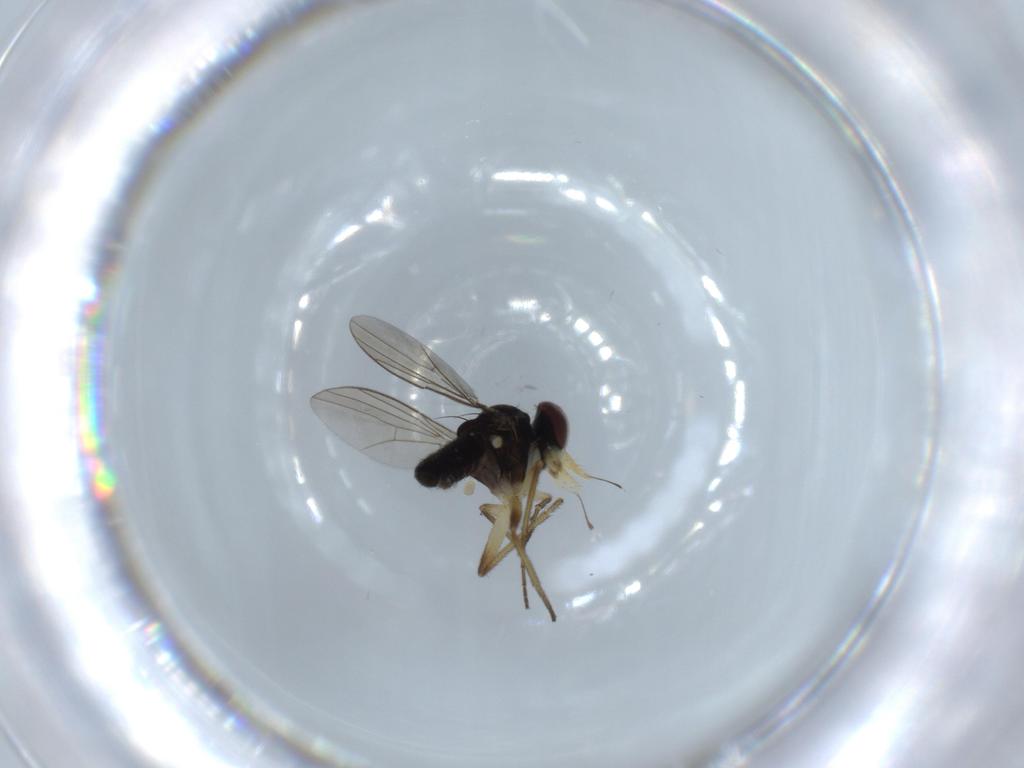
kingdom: Animalia
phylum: Arthropoda
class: Insecta
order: Diptera
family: Dolichopodidae
